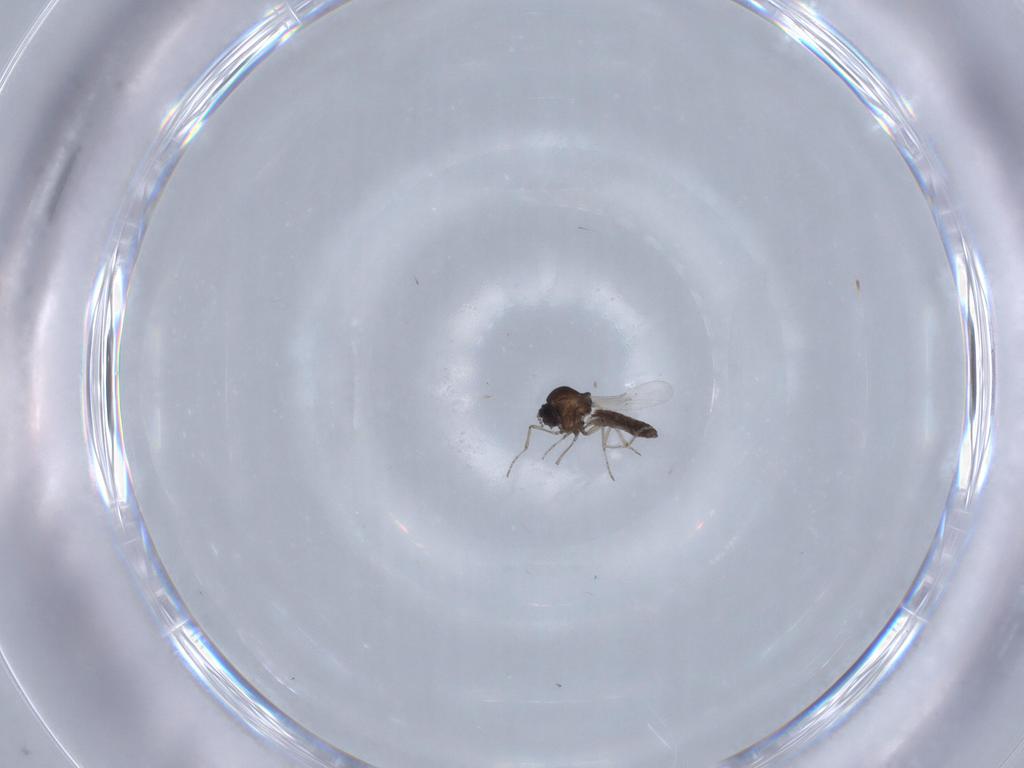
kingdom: Animalia
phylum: Arthropoda
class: Insecta
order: Diptera
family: Ceratopogonidae
